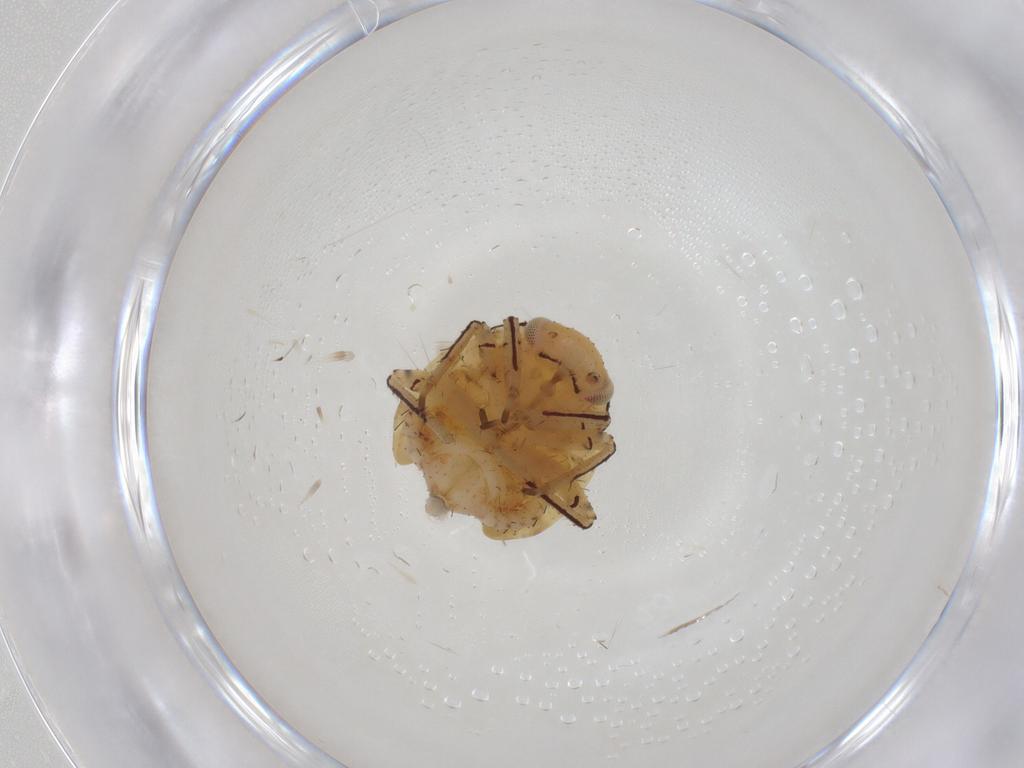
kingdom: Animalia
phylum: Arthropoda
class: Insecta
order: Hemiptera
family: Miridae
